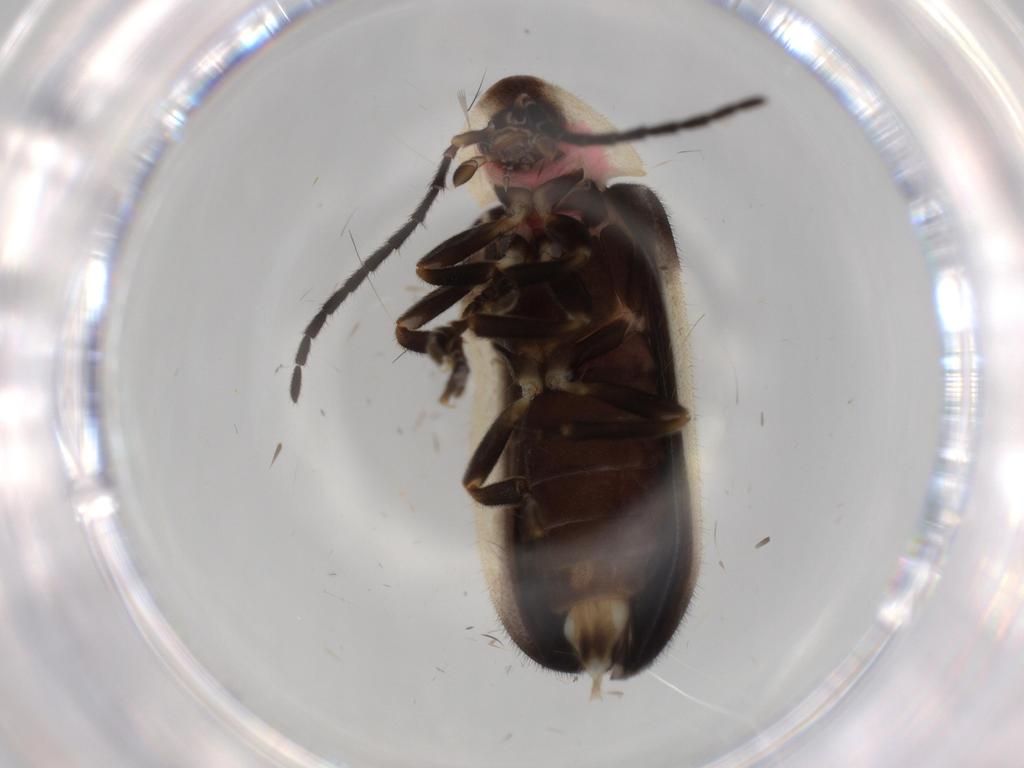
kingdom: Animalia
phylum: Arthropoda
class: Insecta
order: Coleoptera
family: Lampyridae
